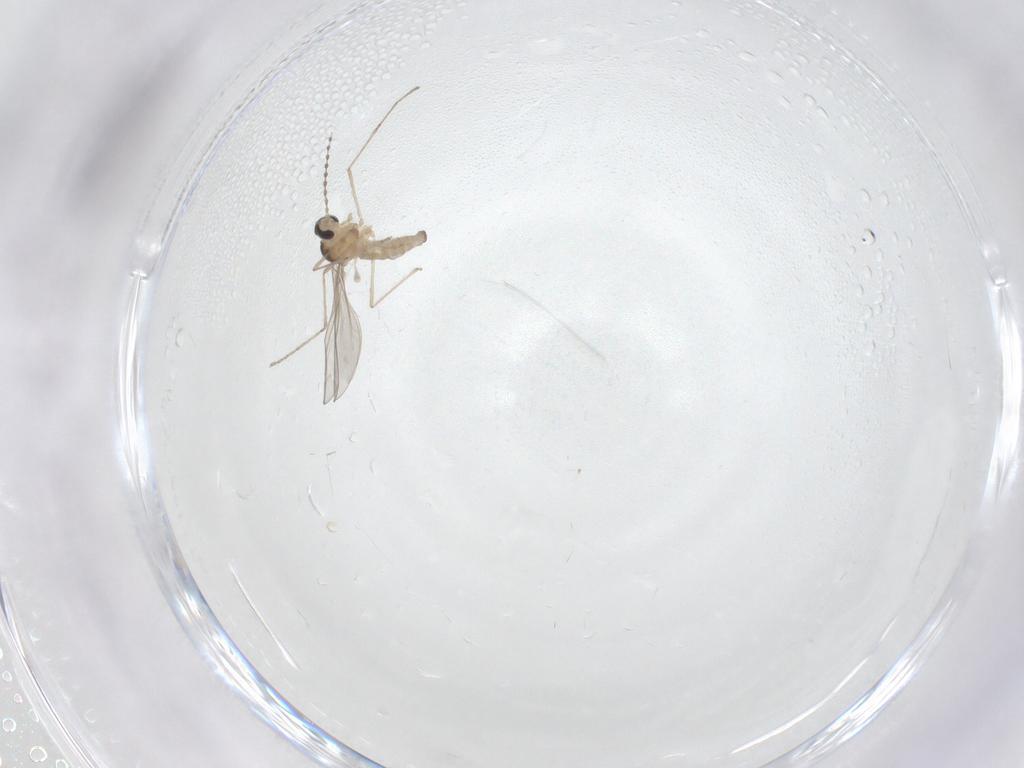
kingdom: Animalia
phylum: Arthropoda
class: Insecta
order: Diptera
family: Cecidomyiidae
